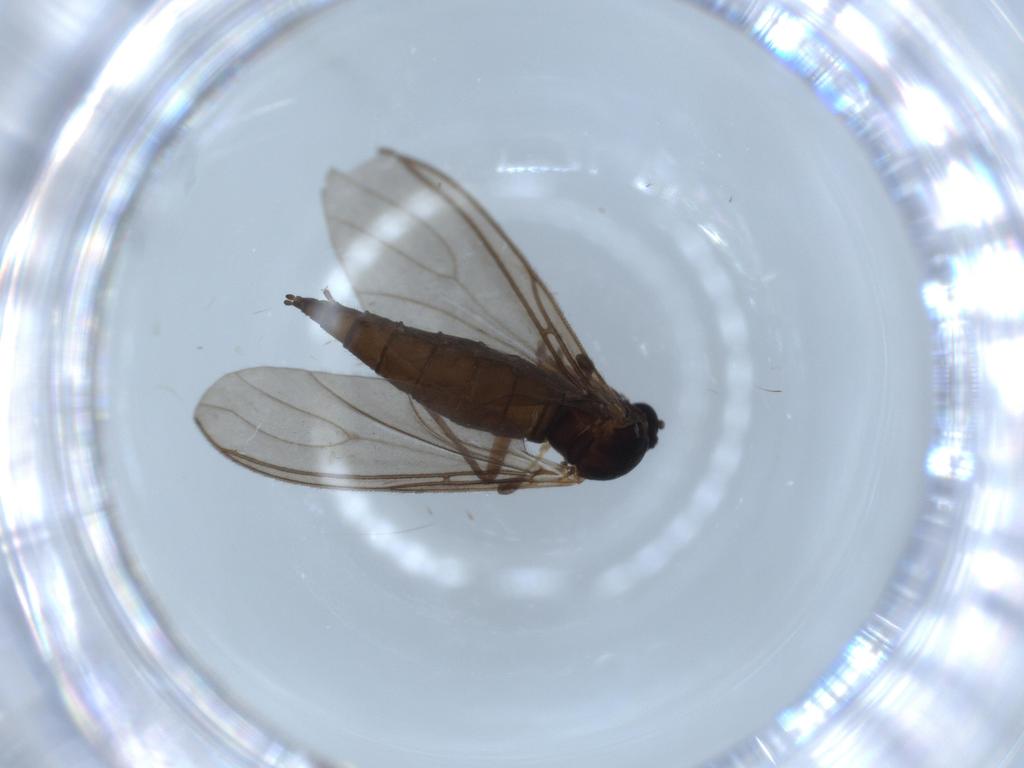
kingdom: Animalia
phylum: Arthropoda
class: Insecta
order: Diptera
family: Sciaridae
